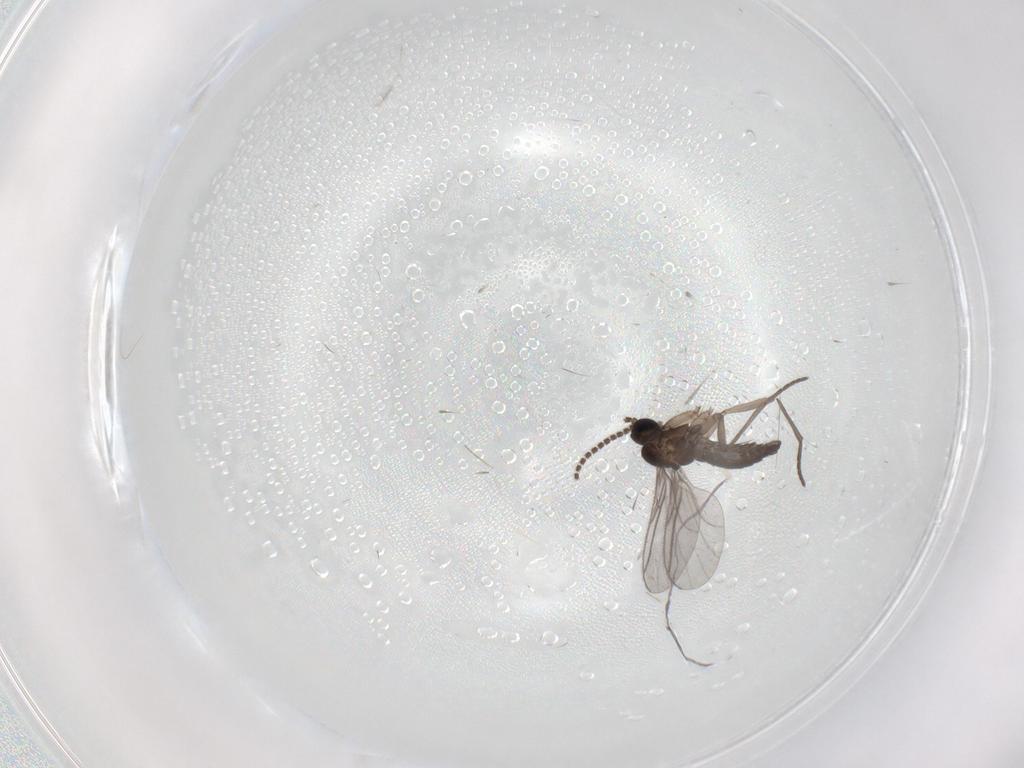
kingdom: Animalia
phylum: Arthropoda
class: Insecta
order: Diptera
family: Chironomidae
